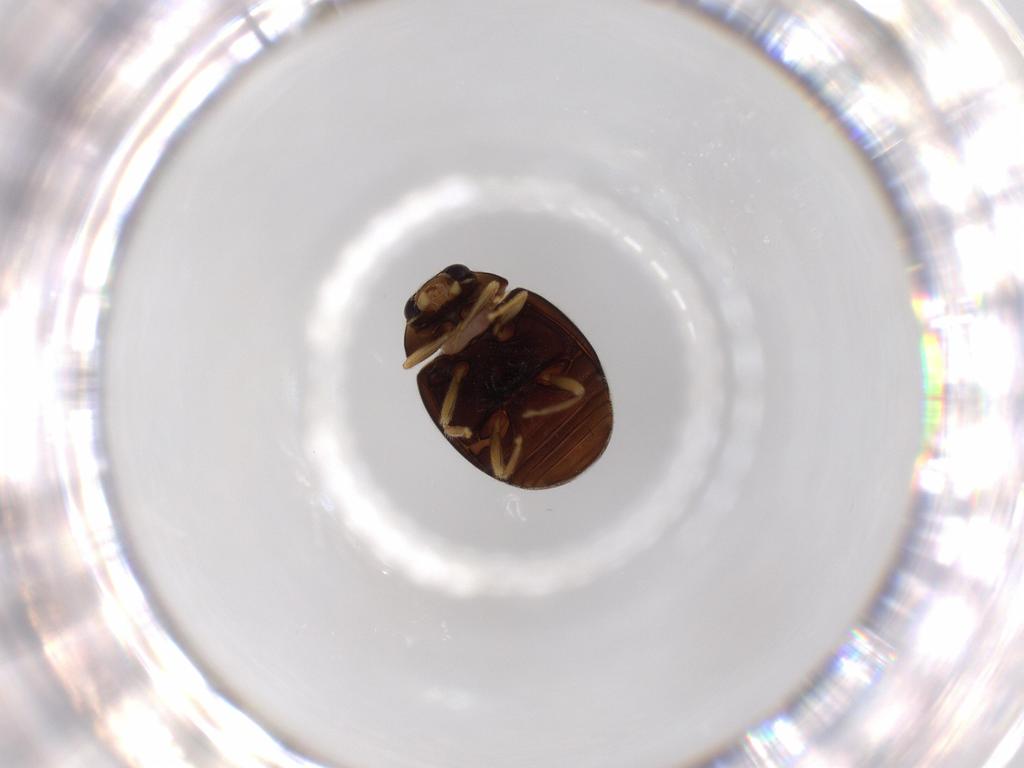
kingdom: Animalia
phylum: Arthropoda
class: Insecta
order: Coleoptera
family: Coccinellidae
